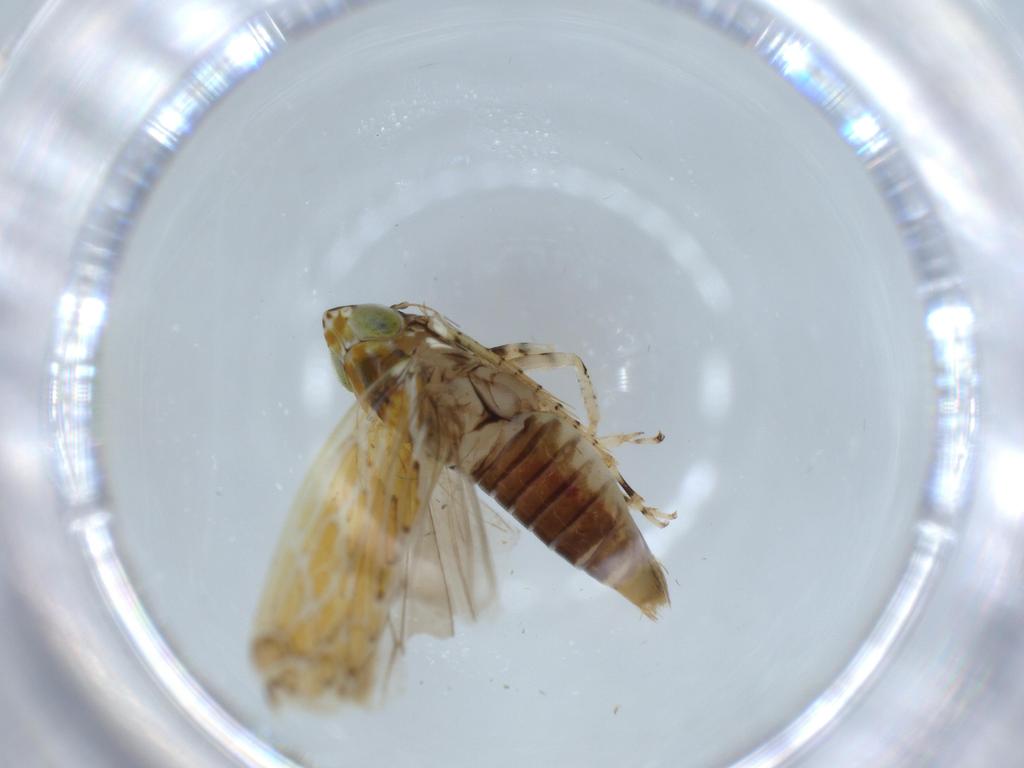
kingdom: Animalia
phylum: Arthropoda
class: Insecta
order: Hemiptera
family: Cicadellidae
